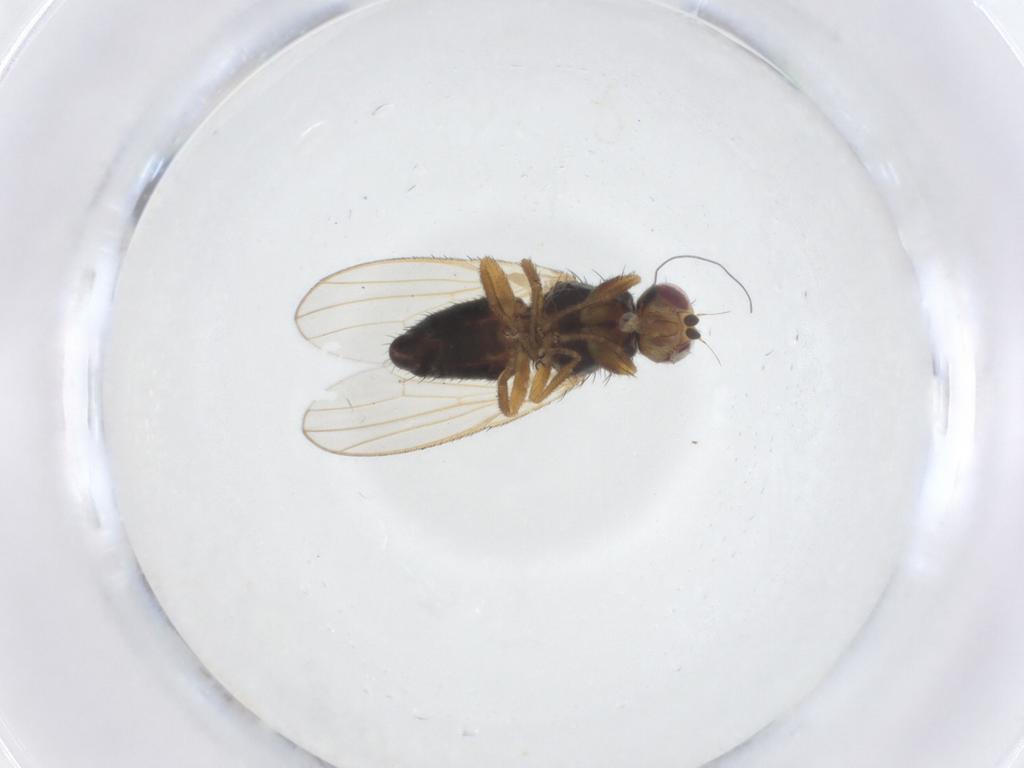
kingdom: Animalia
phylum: Arthropoda
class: Insecta
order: Diptera
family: Heleomyzidae
